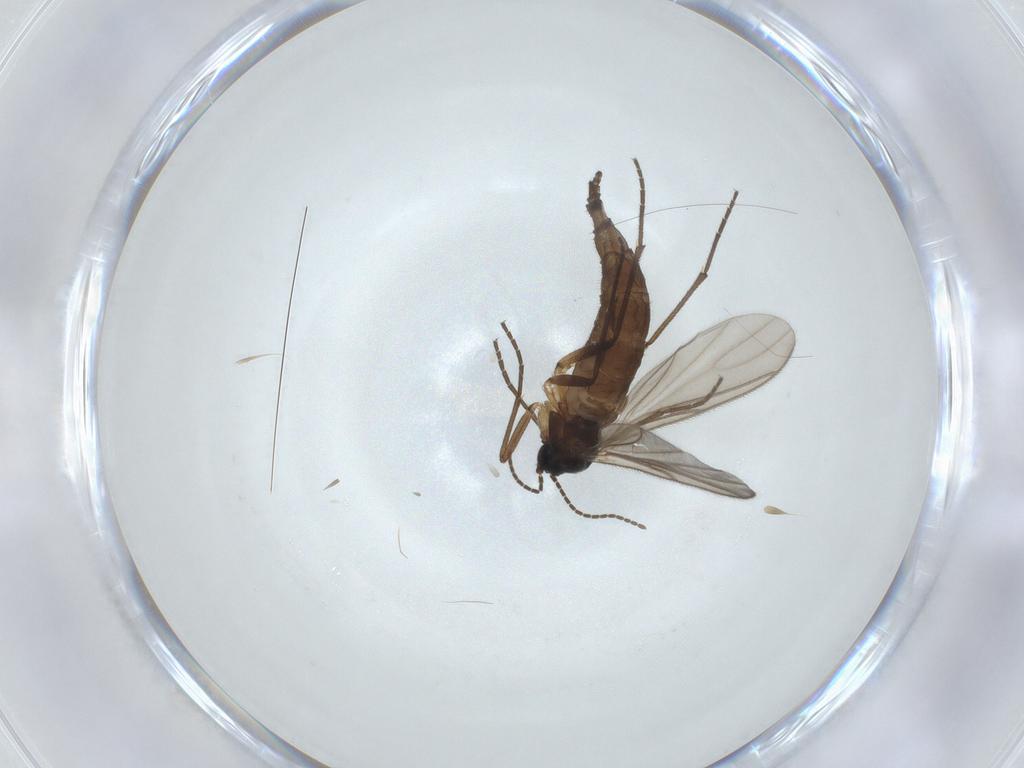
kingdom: Animalia
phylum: Arthropoda
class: Insecta
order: Diptera
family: Sciaridae
